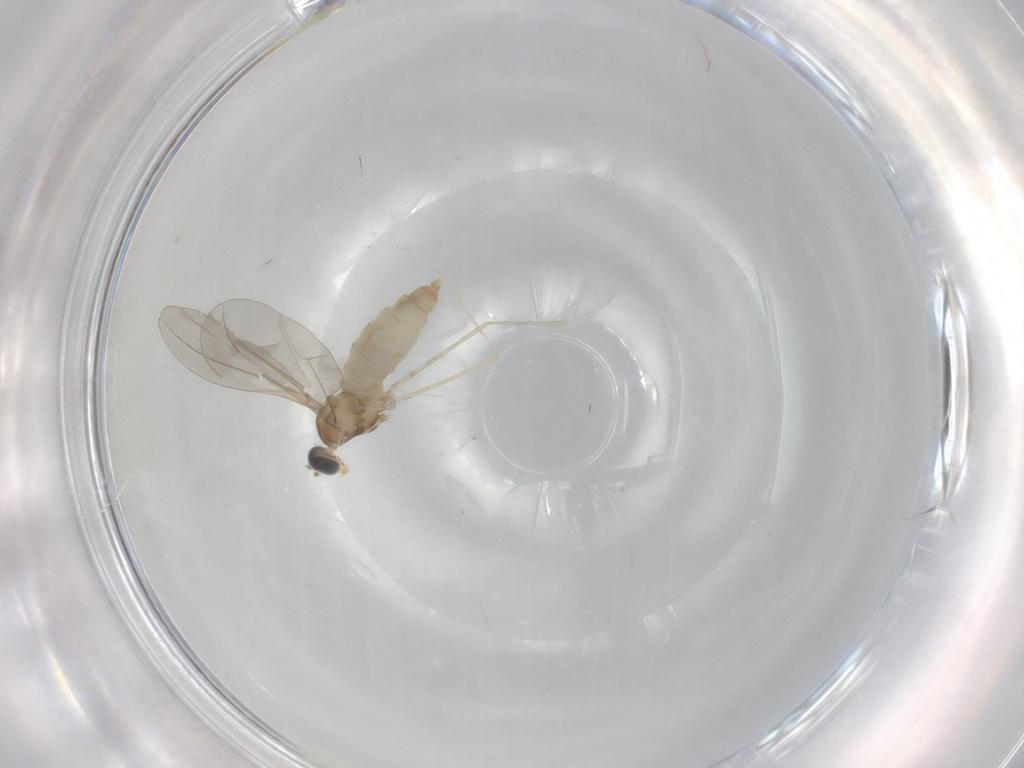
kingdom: Animalia
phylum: Arthropoda
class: Insecta
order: Diptera
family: Cecidomyiidae
